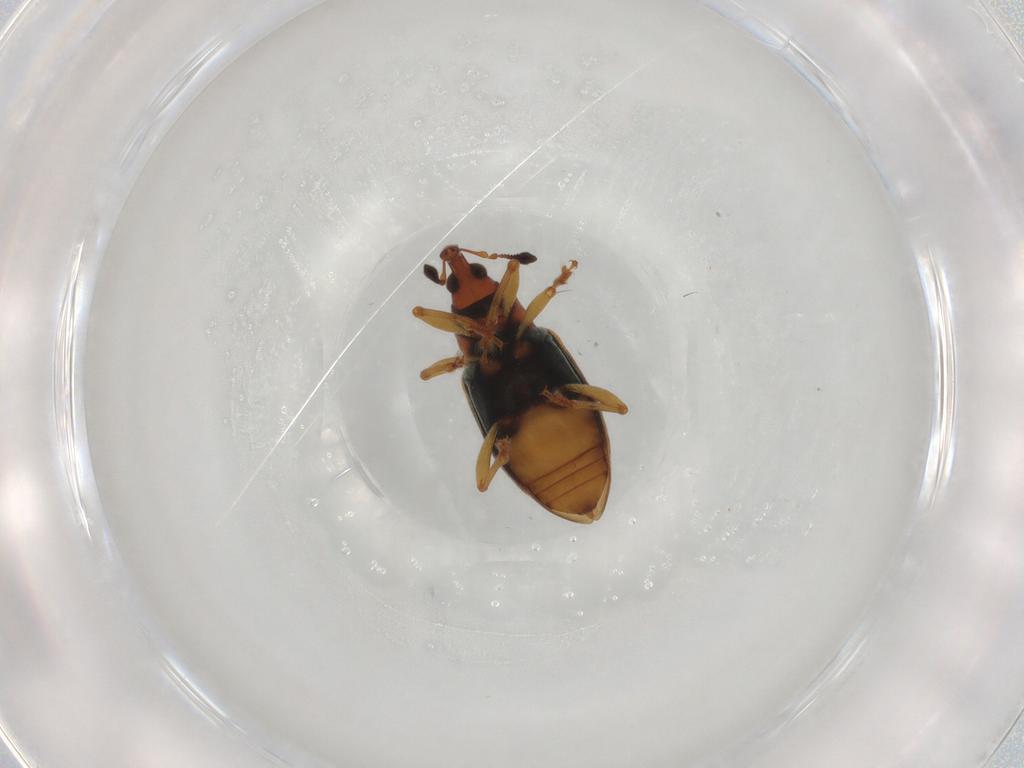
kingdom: Animalia
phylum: Arthropoda
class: Insecta
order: Coleoptera
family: Curculionidae
